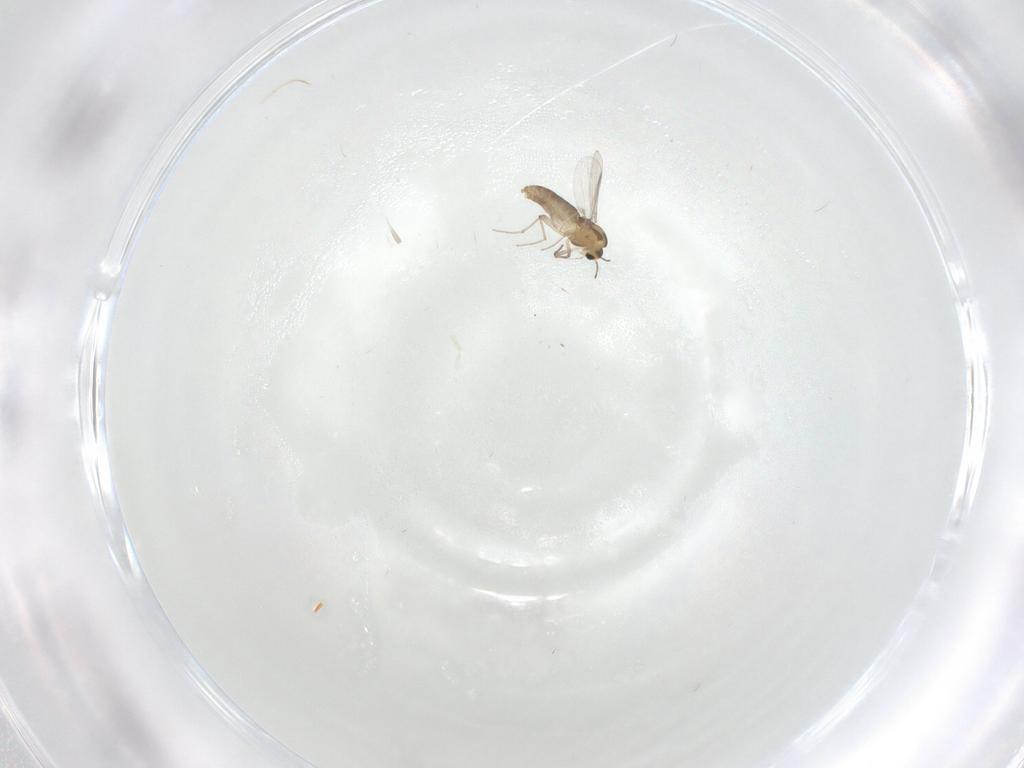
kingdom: Animalia
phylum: Arthropoda
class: Insecta
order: Diptera
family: Chironomidae
